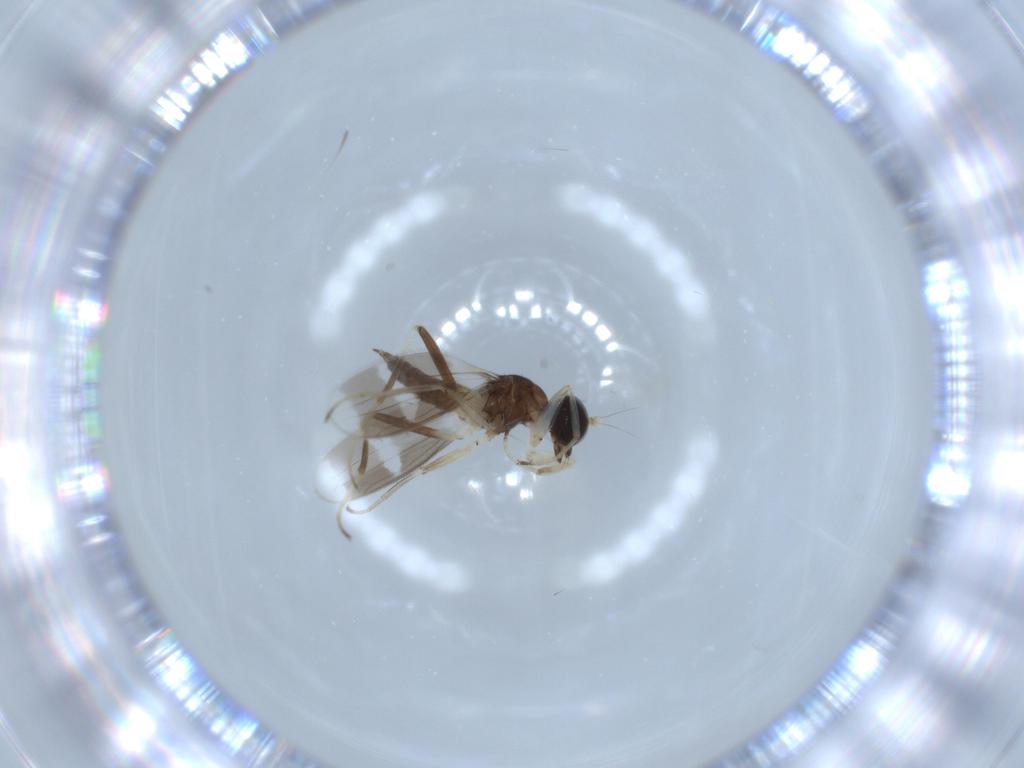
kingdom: Animalia
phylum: Arthropoda
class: Insecta
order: Diptera
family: Hybotidae
